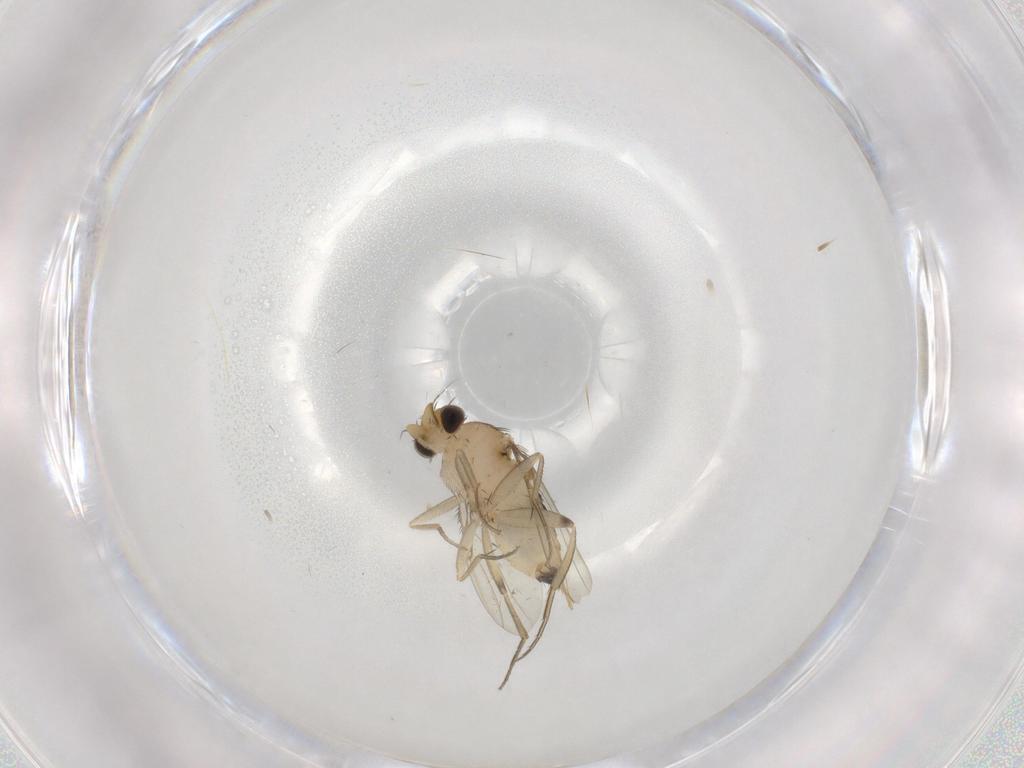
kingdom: Animalia
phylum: Arthropoda
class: Insecta
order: Diptera
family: Phoridae
